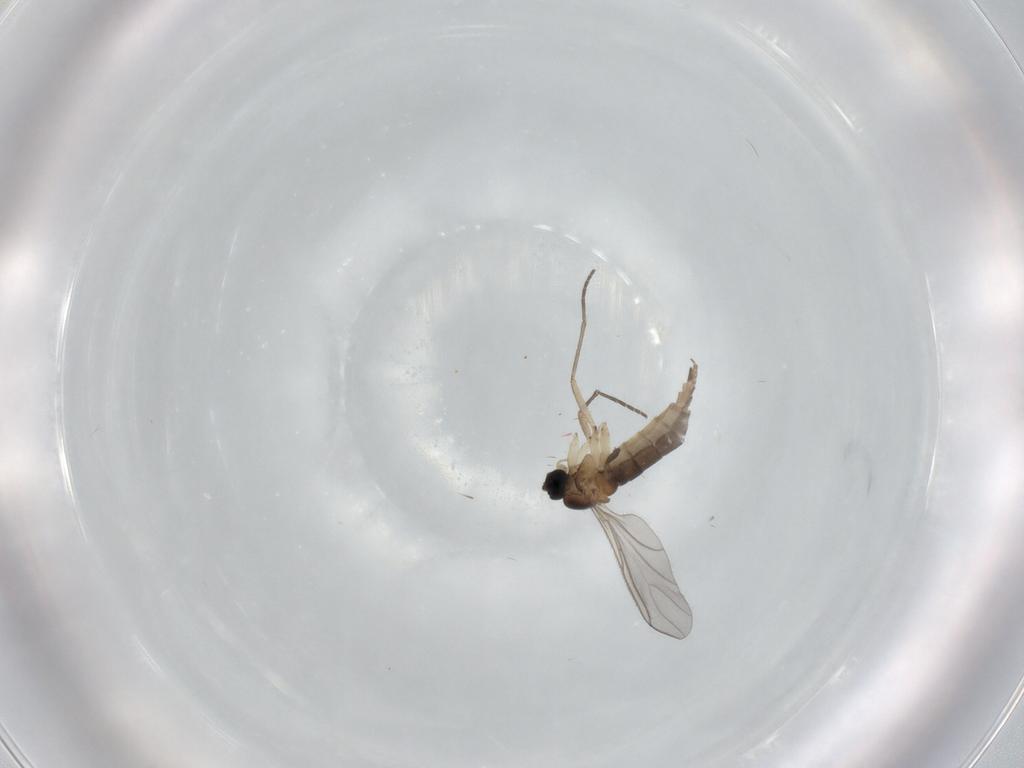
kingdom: Animalia
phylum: Arthropoda
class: Insecta
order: Diptera
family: Sciaridae
